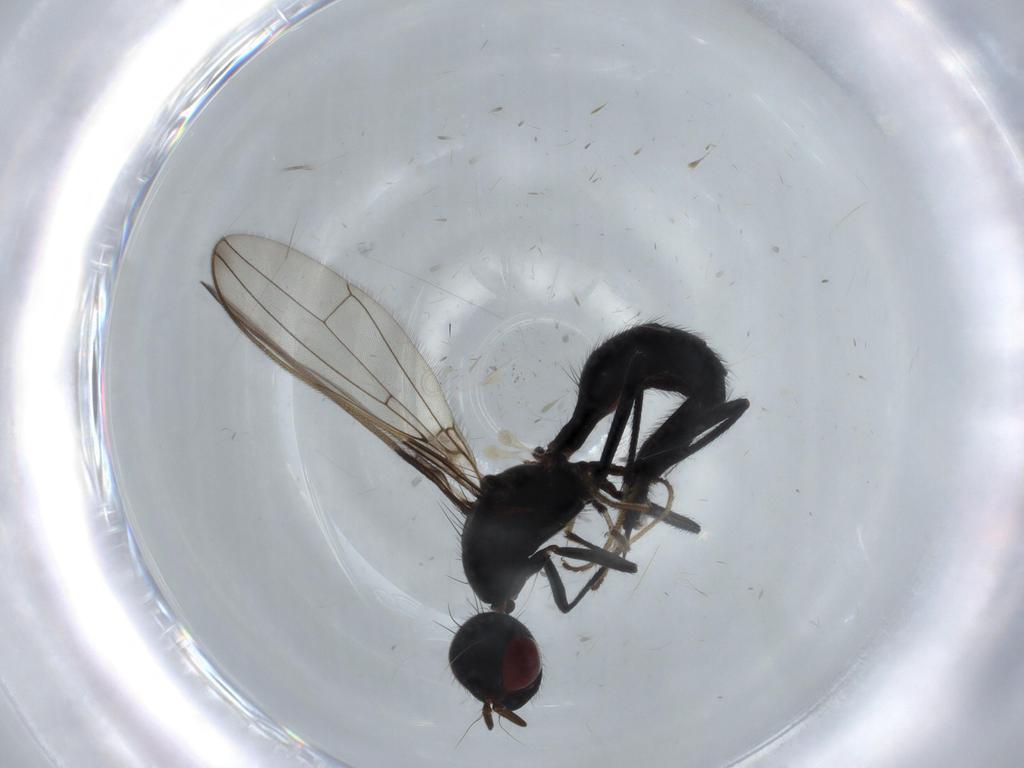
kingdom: Animalia
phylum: Arthropoda
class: Insecta
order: Diptera
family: Richardiidae
